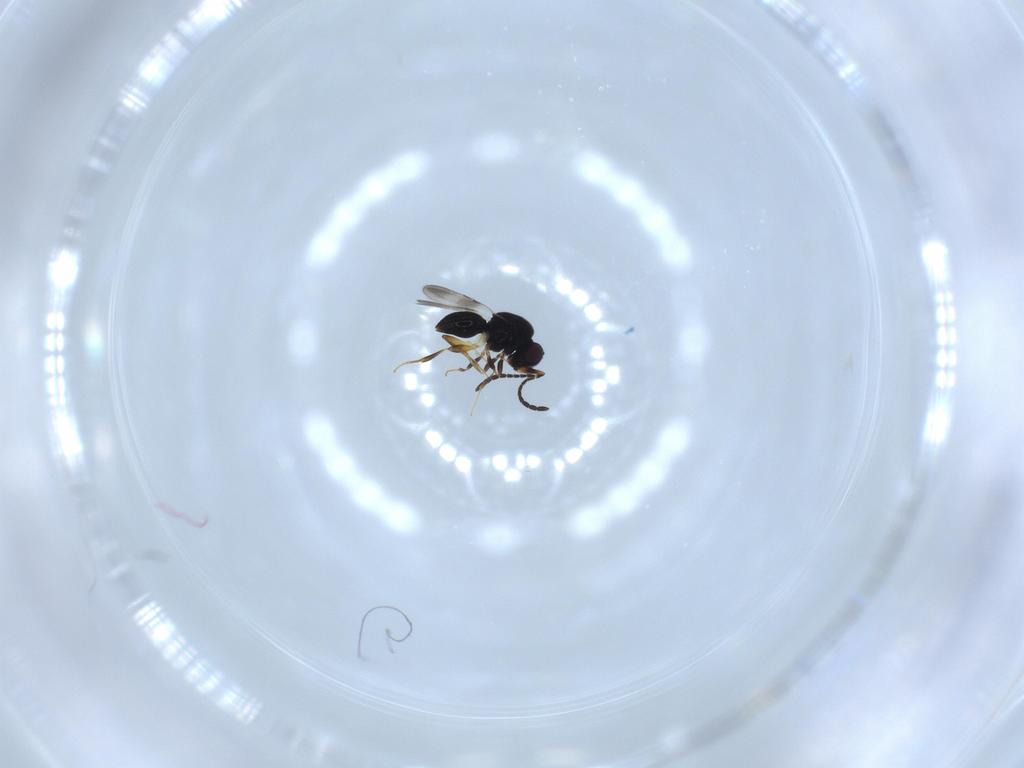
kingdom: Animalia
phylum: Arthropoda
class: Insecta
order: Hymenoptera
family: Ceraphronidae
